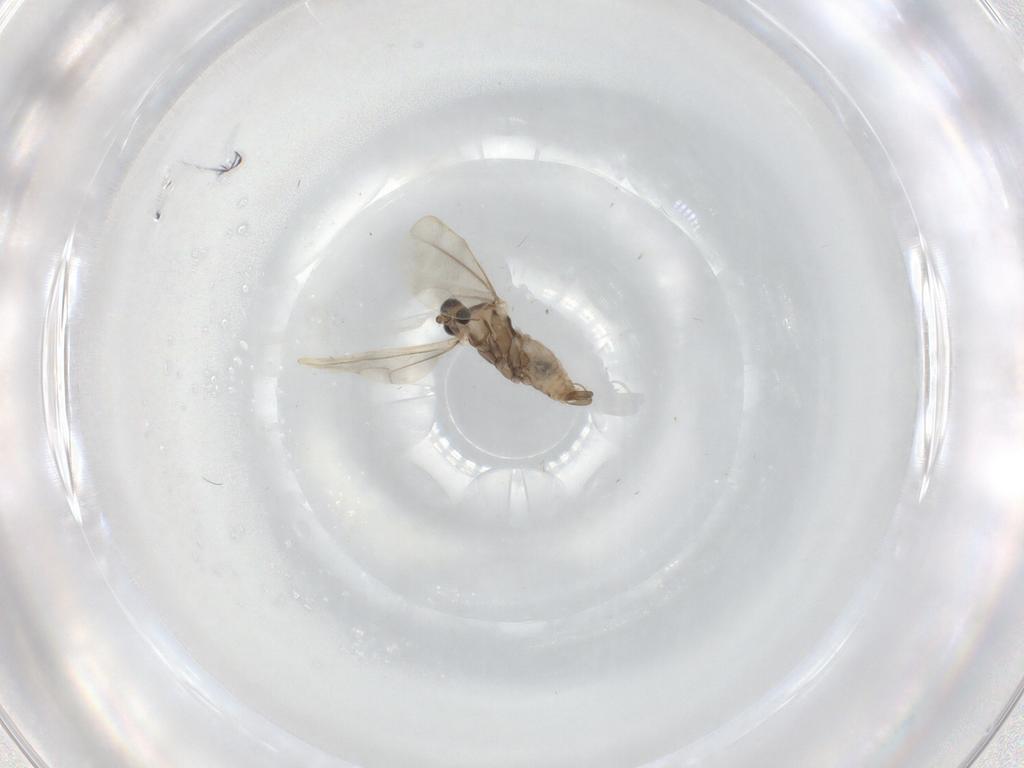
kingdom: Animalia
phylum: Arthropoda
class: Insecta
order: Diptera
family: Cecidomyiidae
